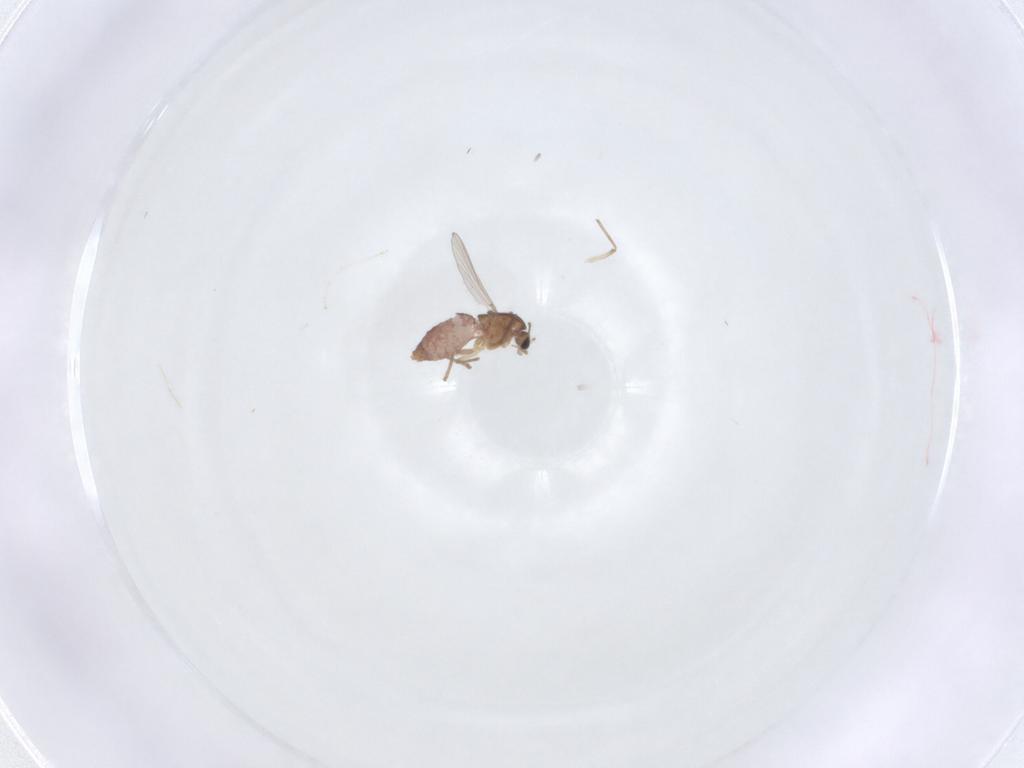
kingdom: Animalia
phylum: Arthropoda
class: Insecta
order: Diptera
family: Chironomidae
